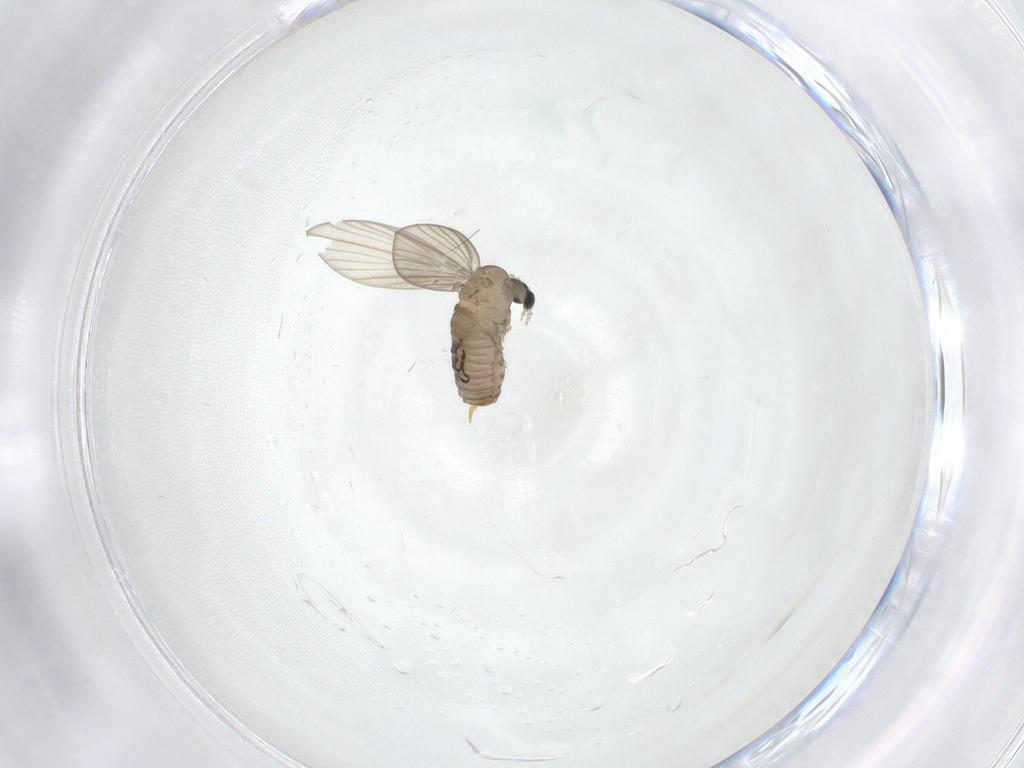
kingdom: Animalia
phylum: Arthropoda
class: Insecta
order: Diptera
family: Psychodidae
